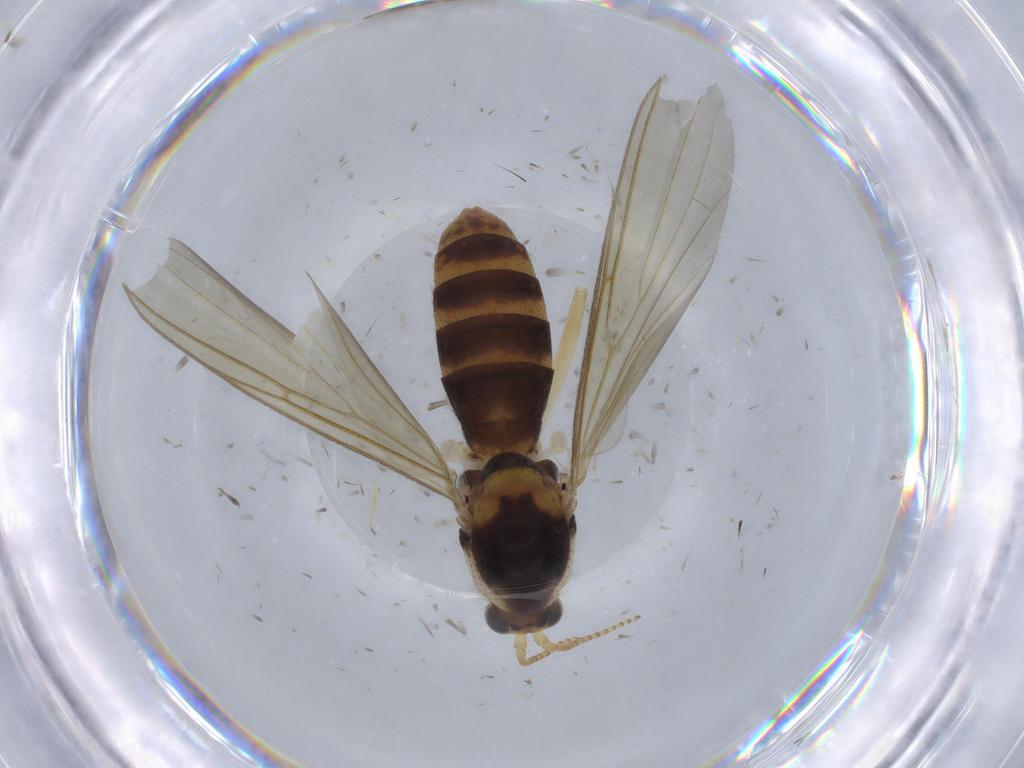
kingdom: Animalia
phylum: Arthropoda
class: Insecta
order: Diptera
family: Mycetophilidae
